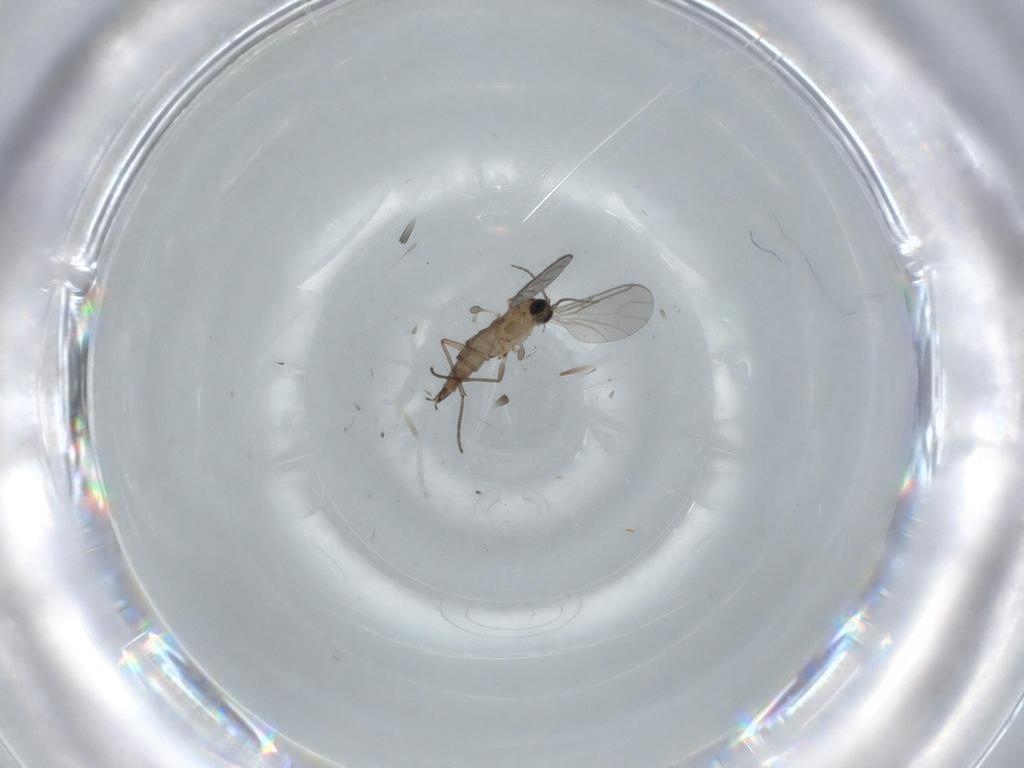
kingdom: Animalia
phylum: Arthropoda
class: Insecta
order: Diptera
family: Sciaridae
